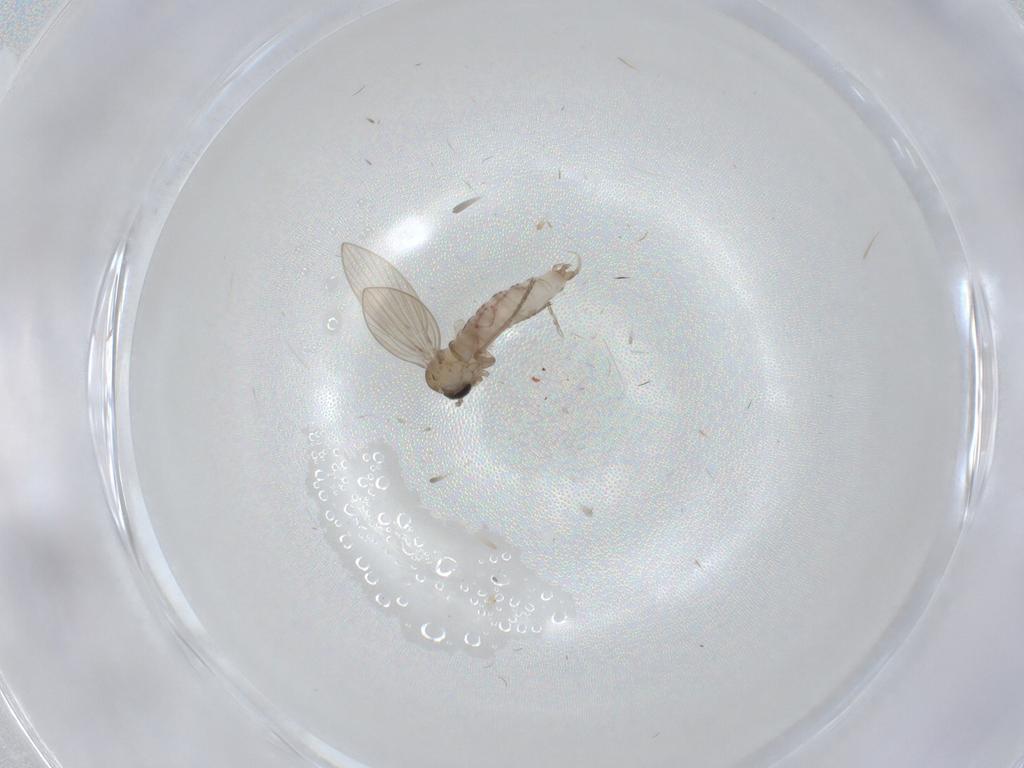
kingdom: Animalia
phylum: Arthropoda
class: Insecta
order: Diptera
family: Psychodidae
